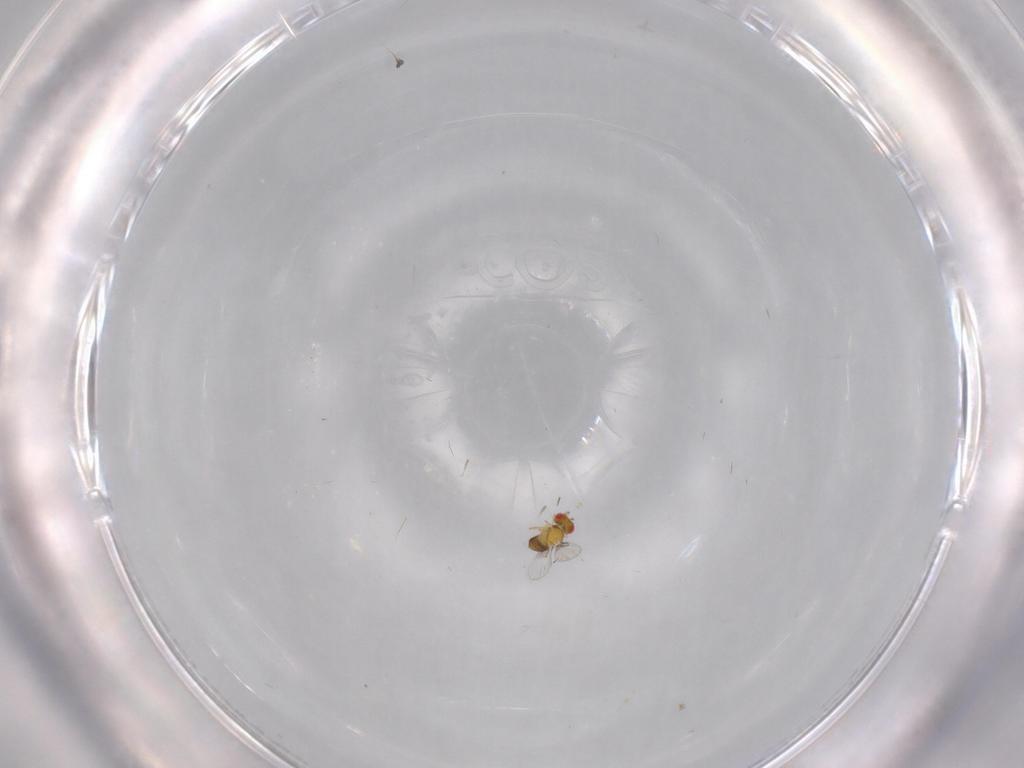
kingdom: Animalia
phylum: Arthropoda
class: Insecta
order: Hymenoptera
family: Trichogrammatidae
